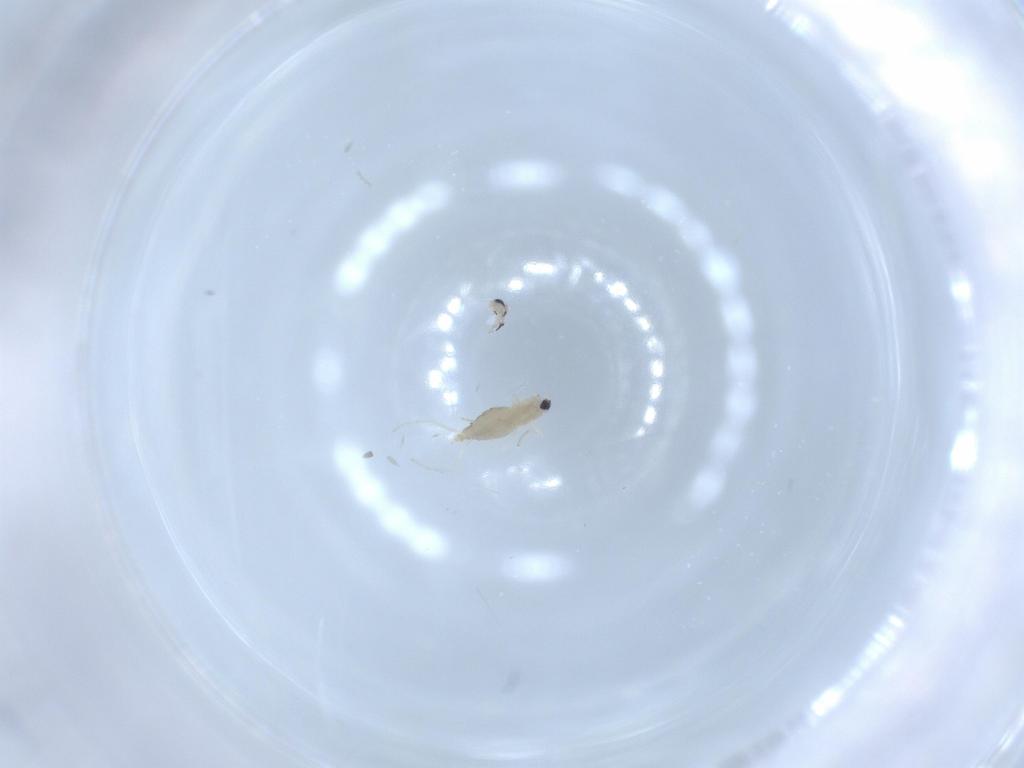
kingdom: Animalia
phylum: Arthropoda
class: Insecta
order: Diptera
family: Cecidomyiidae
